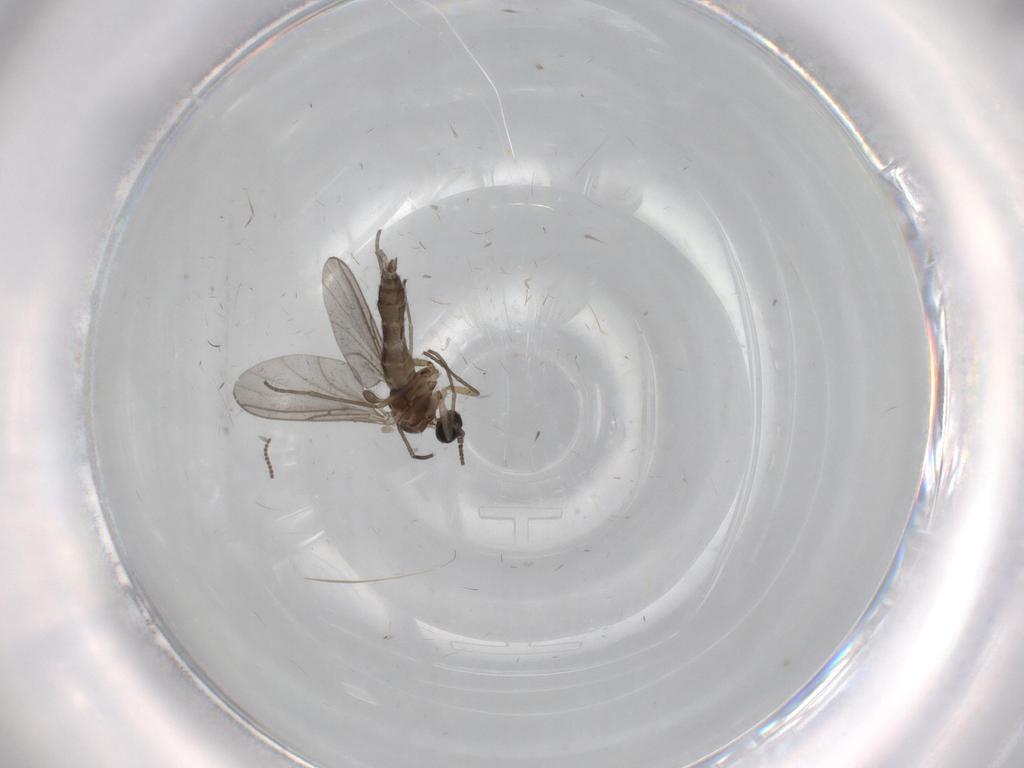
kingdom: Animalia
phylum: Arthropoda
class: Insecta
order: Diptera
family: Sciaridae
